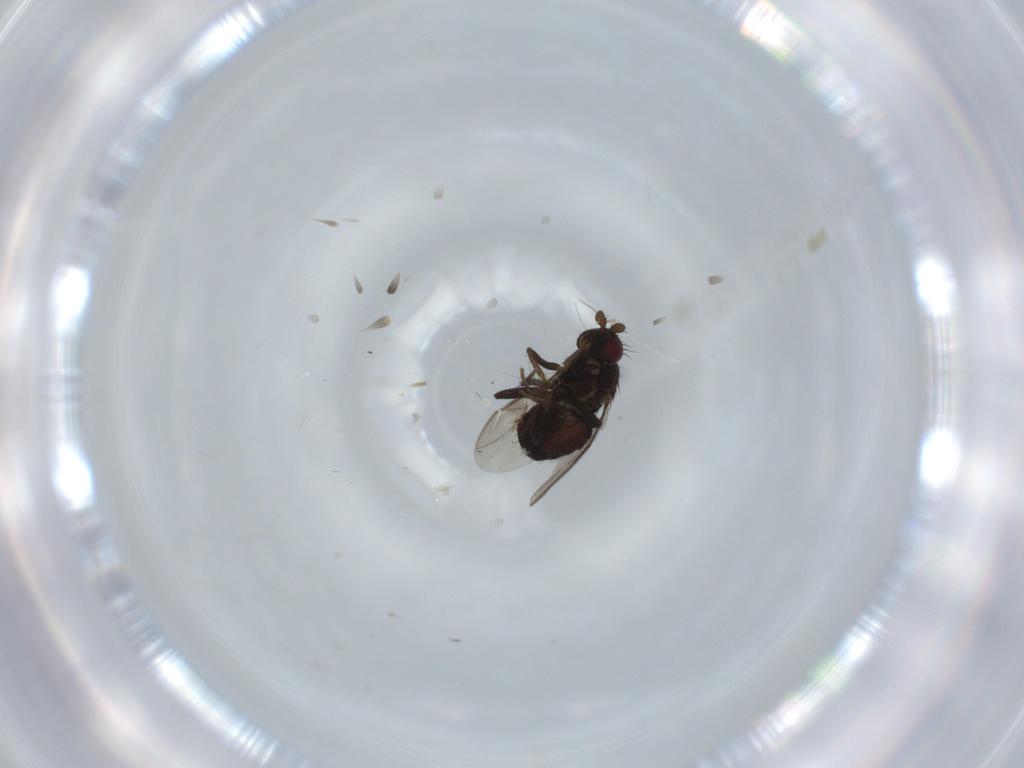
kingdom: Animalia
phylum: Arthropoda
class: Insecta
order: Diptera
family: Sphaeroceridae
